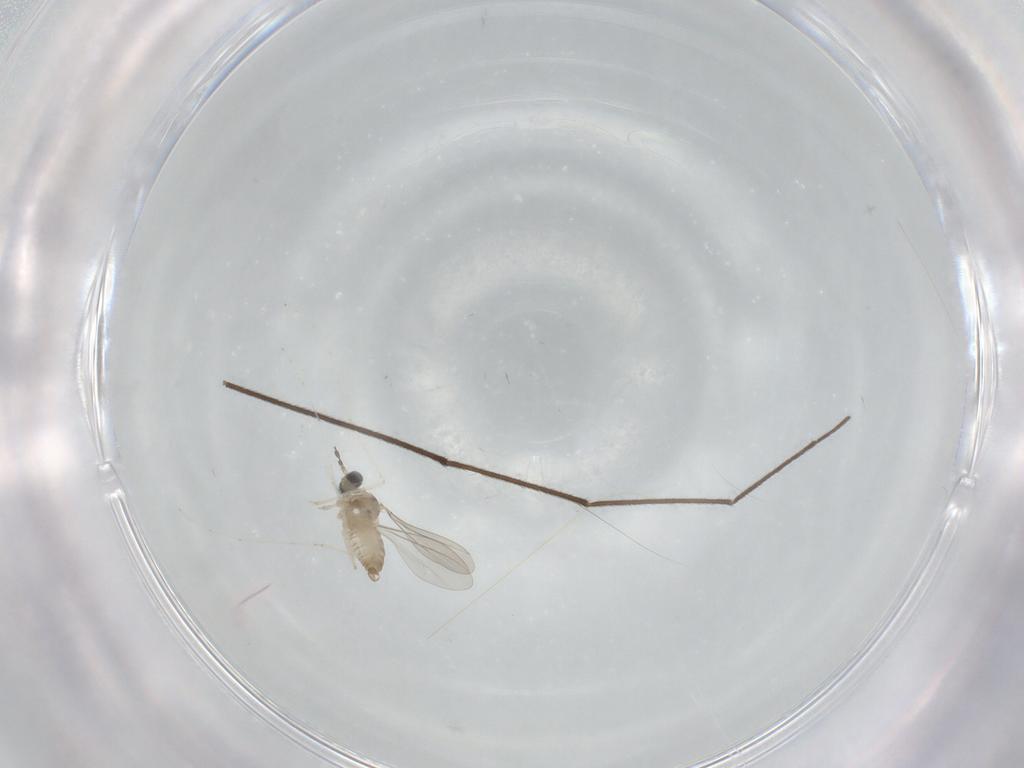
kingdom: Animalia
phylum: Arthropoda
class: Insecta
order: Diptera
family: Chironomidae
